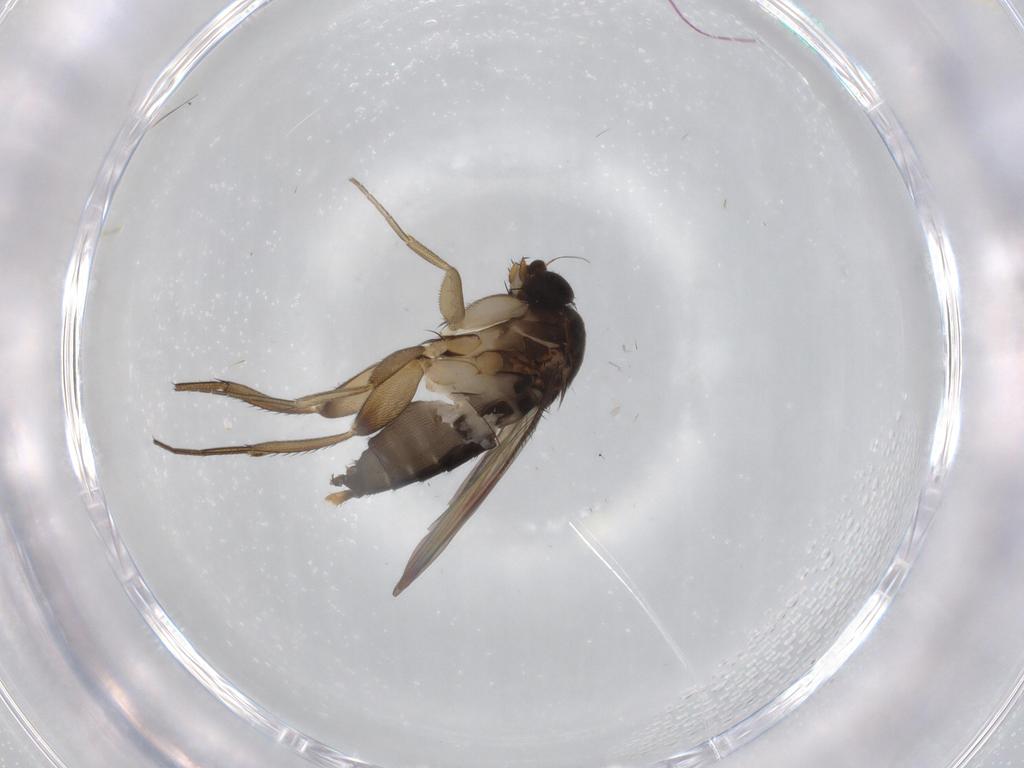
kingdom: Animalia
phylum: Arthropoda
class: Insecta
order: Diptera
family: Phoridae
